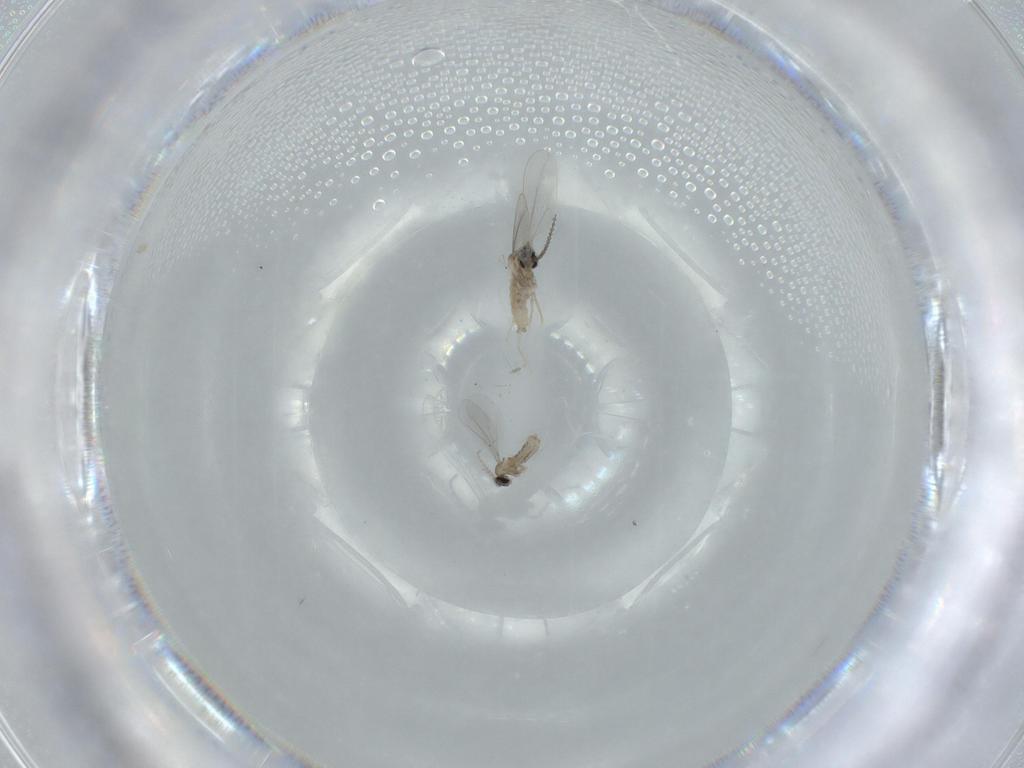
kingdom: Animalia
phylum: Arthropoda
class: Insecta
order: Diptera
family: Cecidomyiidae
